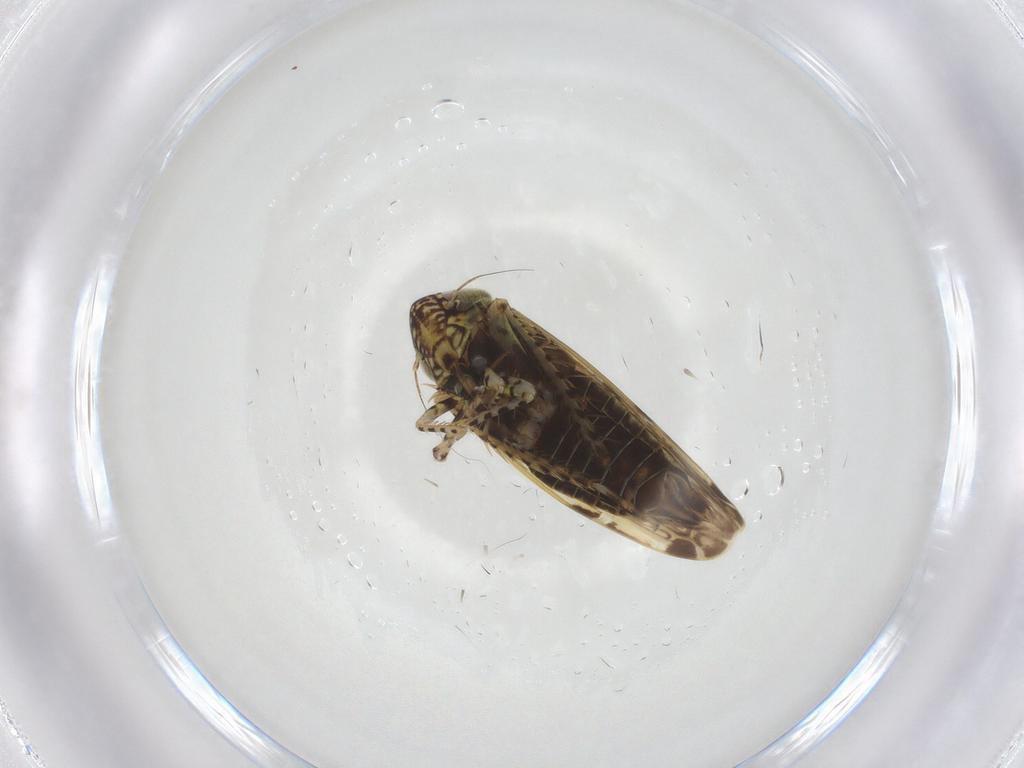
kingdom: Animalia
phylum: Arthropoda
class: Insecta
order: Hemiptera
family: Cicadellidae
